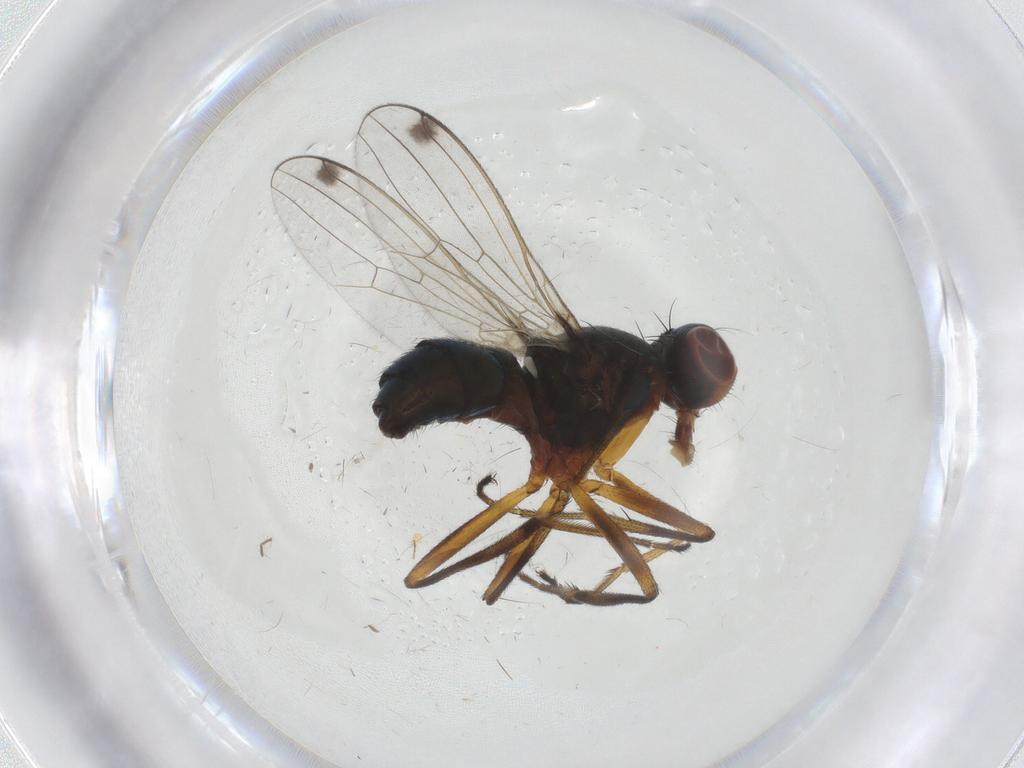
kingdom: Animalia
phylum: Arthropoda
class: Insecta
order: Diptera
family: Sepsidae
